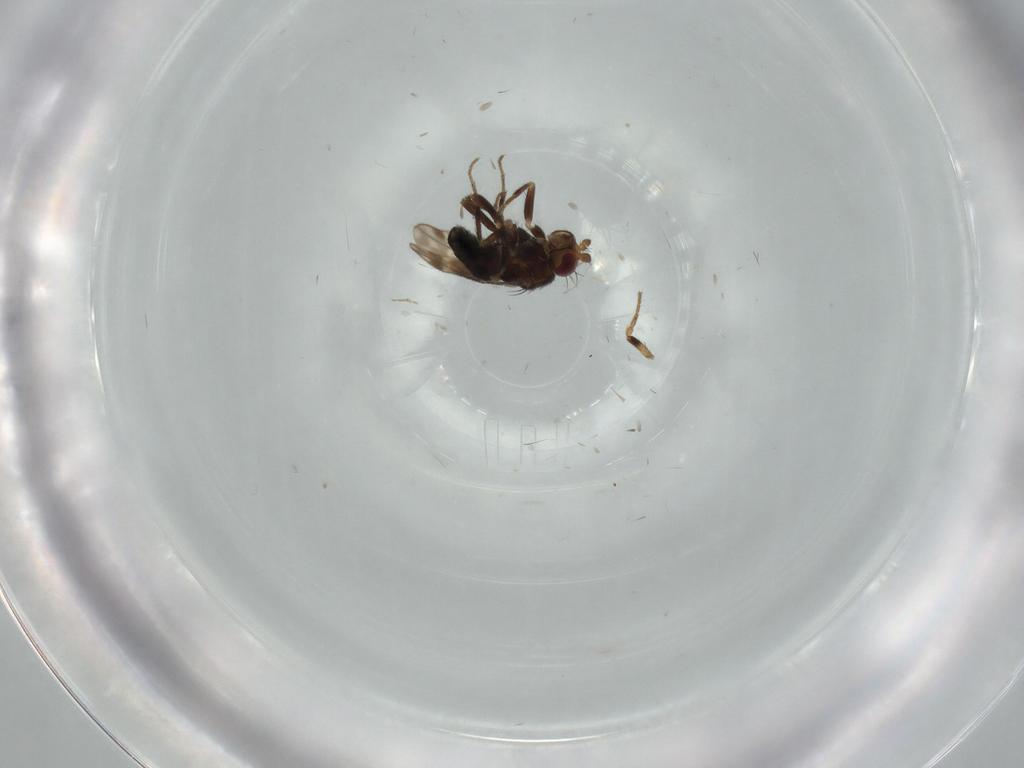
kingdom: Animalia
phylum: Arthropoda
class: Insecta
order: Diptera
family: Sphaeroceridae
